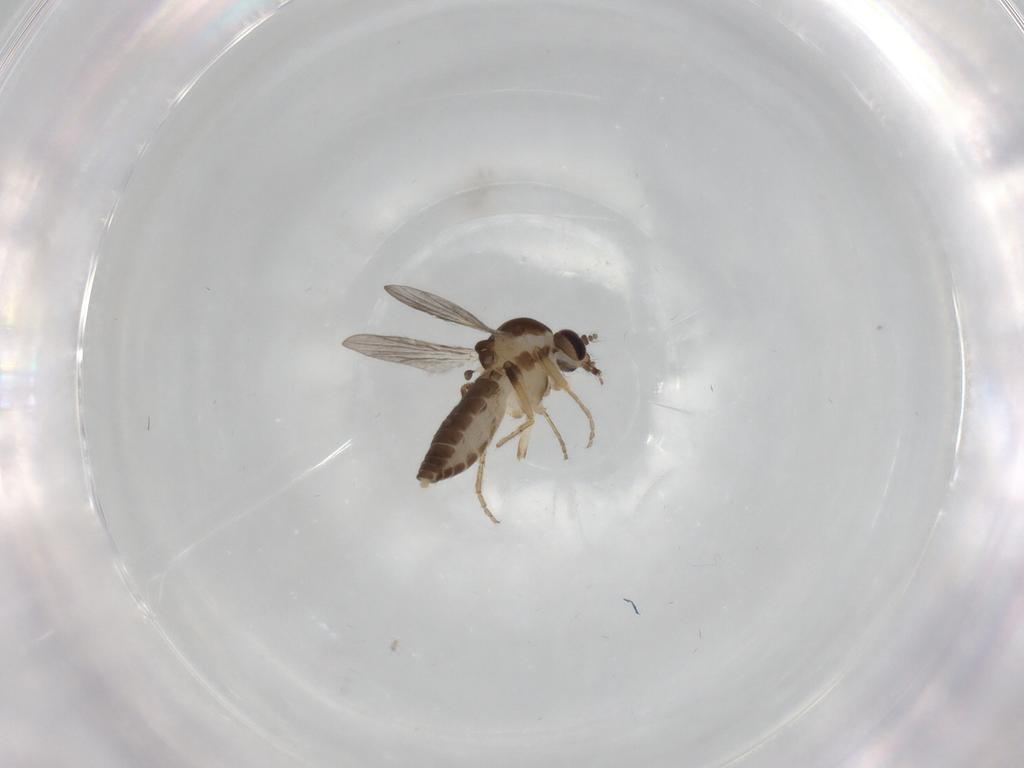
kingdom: Animalia
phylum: Arthropoda
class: Insecta
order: Diptera
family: Ceratopogonidae
